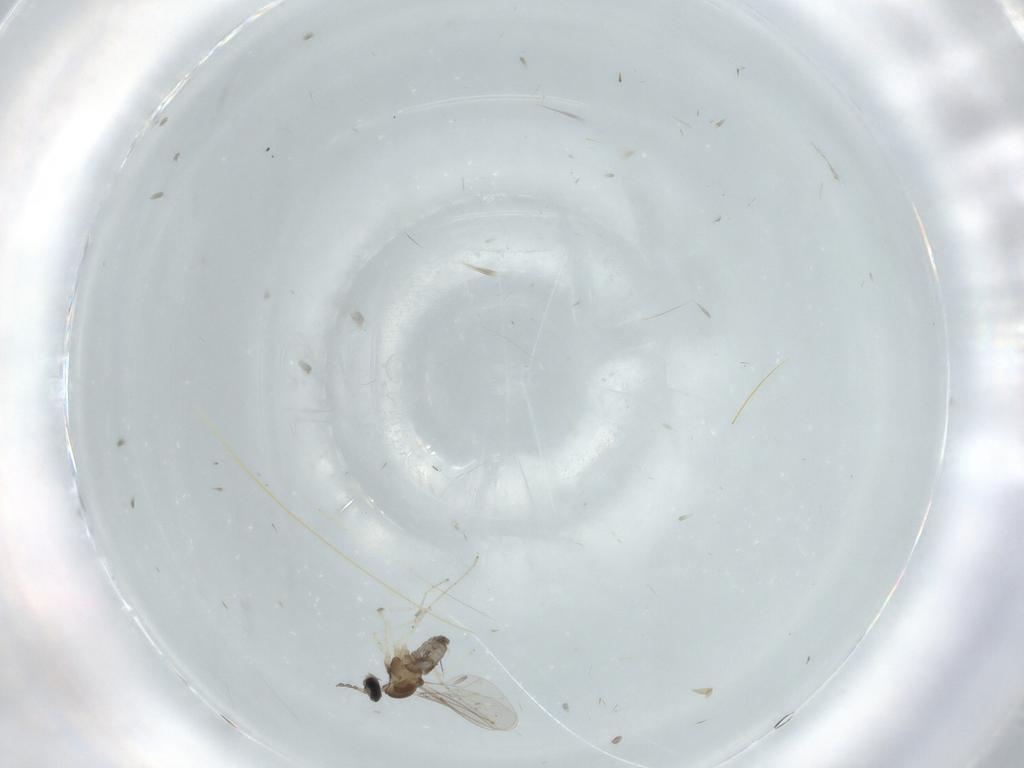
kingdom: Animalia
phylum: Arthropoda
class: Insecta
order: Diptera
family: Cecidomyiidae
